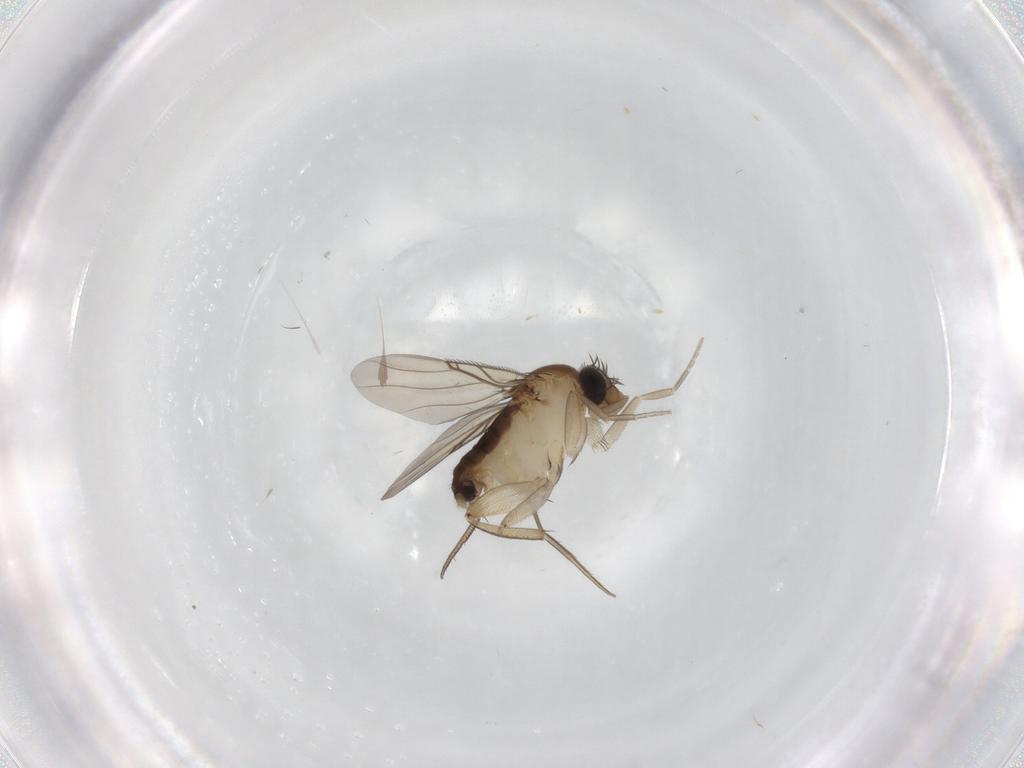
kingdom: Animalia
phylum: Arthropoda
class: Insecta
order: Diptera
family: Phoridae
